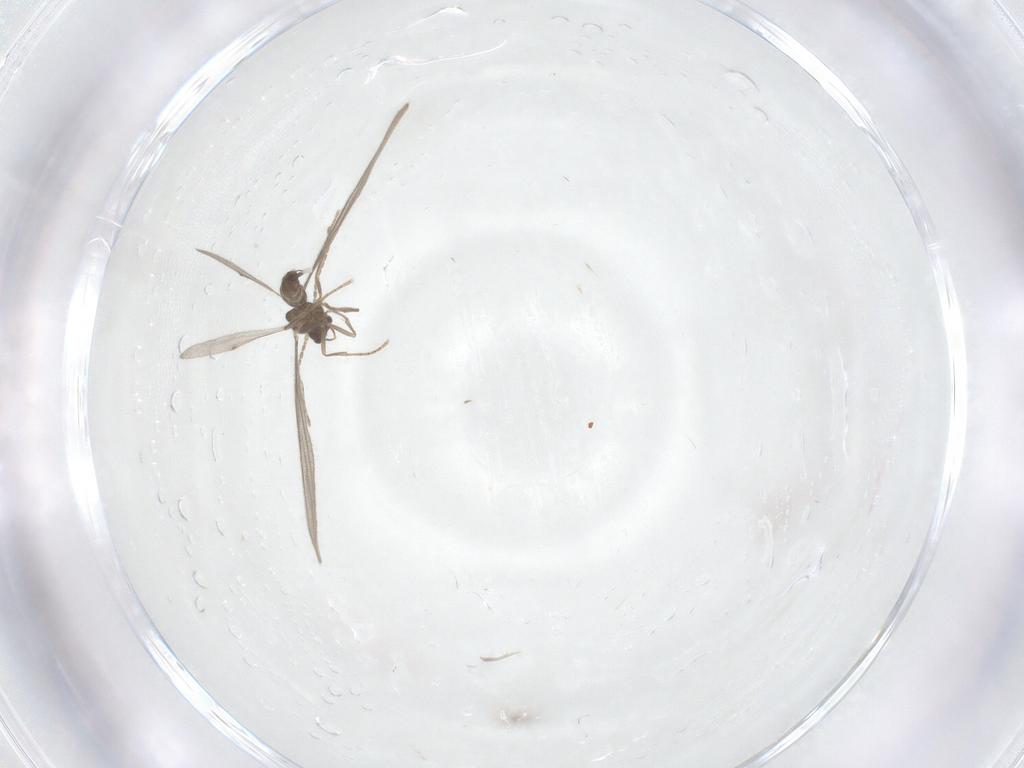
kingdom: Animalia
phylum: Arthropoda
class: Insecta
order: Hymenoptera
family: Formicidae
